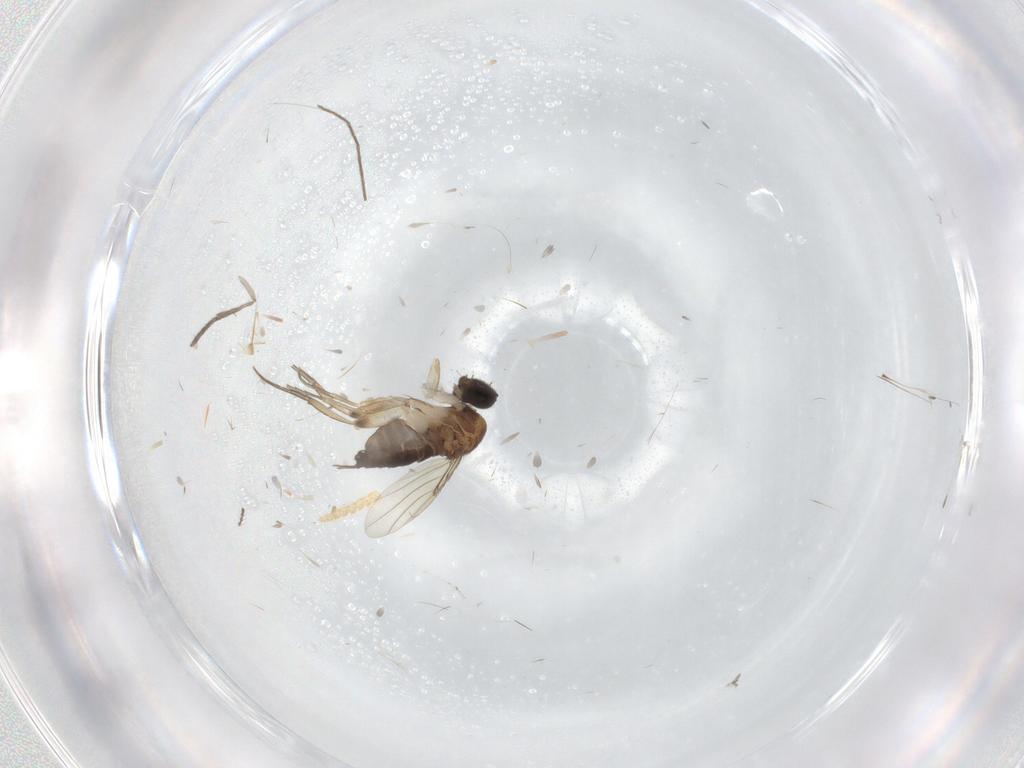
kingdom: Animalia
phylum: Arthropoda
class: Insecta
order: Diptera
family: Phoridae
